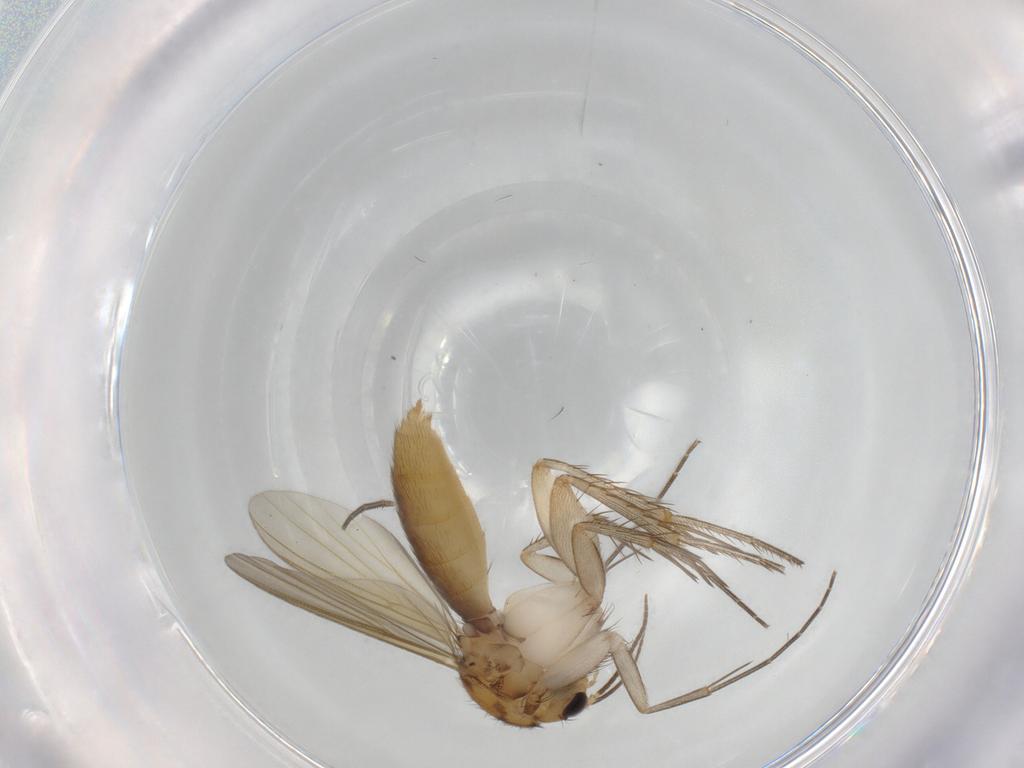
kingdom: Animalia
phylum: Arthropoda
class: Insecta
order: Diptera
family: Mycetophilidae
